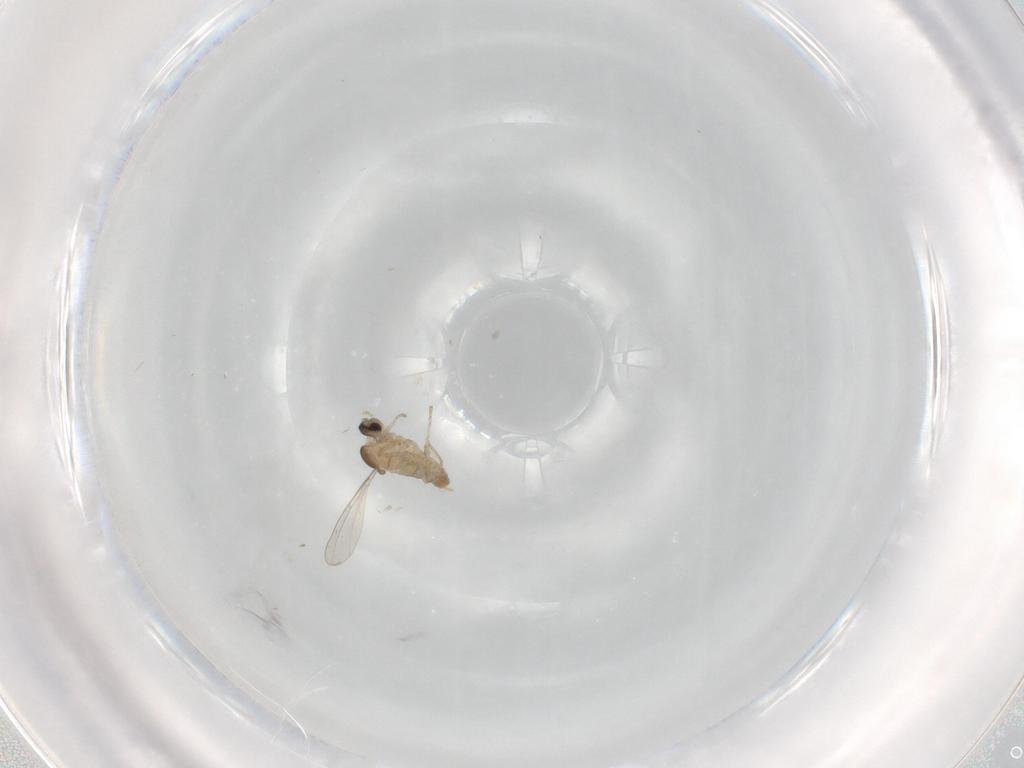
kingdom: Animalia
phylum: Arthropoda
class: Insecta
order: Diptera
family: Cecidomyiidae
